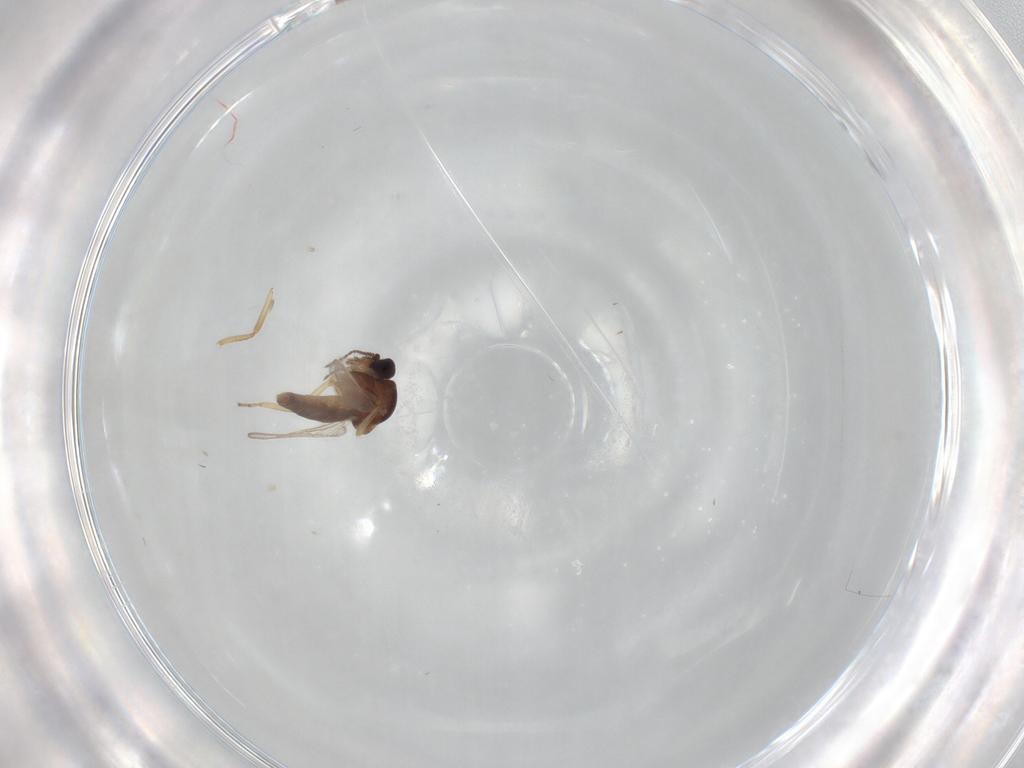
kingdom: Animalia
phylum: Arthropoda
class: Insecta
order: Diptera
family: Ceratopogonidae
